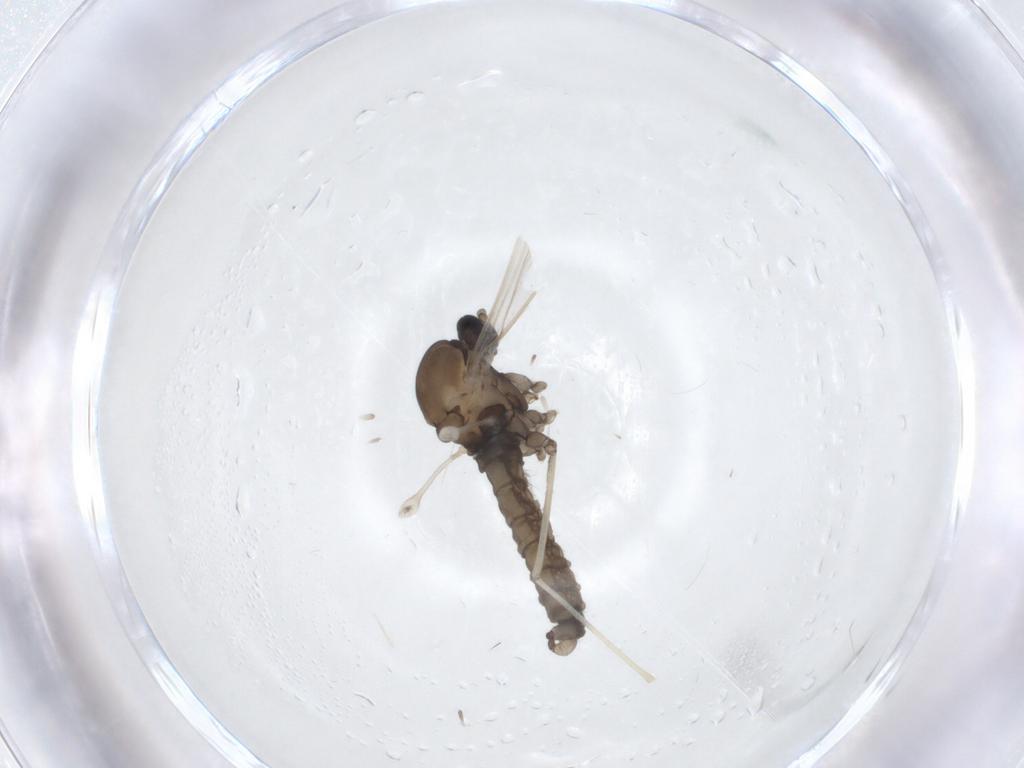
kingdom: Animalia
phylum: Arthropoda
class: Insecta
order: Diptera
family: Cecidomyiidae
